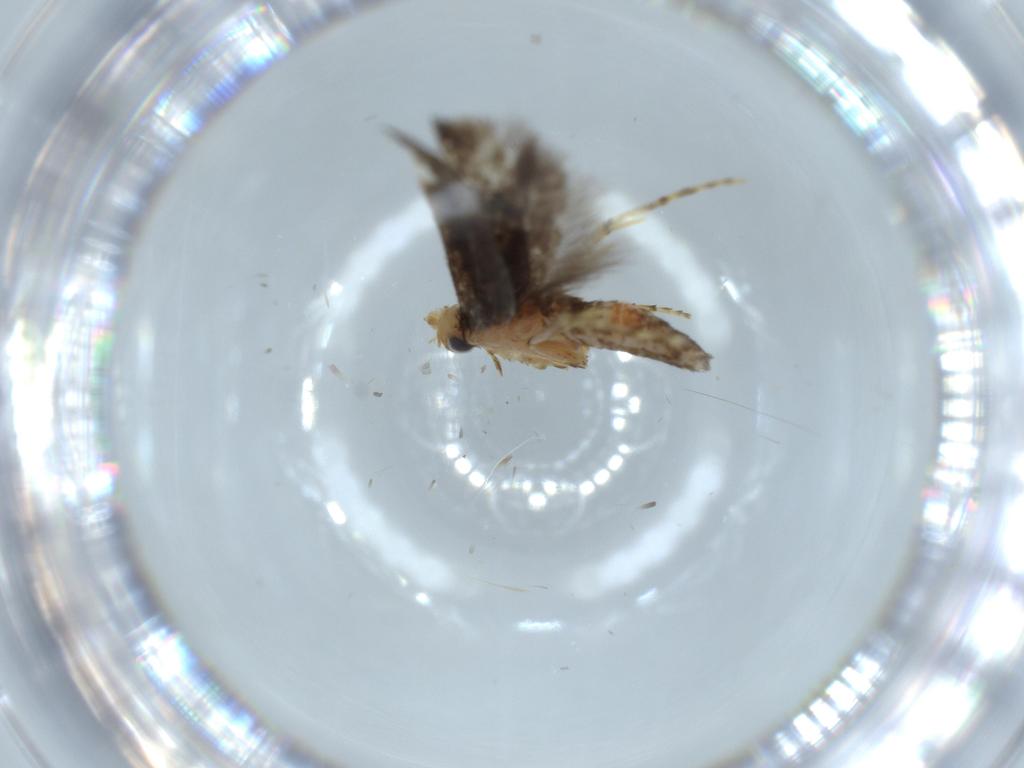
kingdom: Animalia
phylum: Arthropoda
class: Insecta
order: Lepidoptera
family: Argyresthiidae
